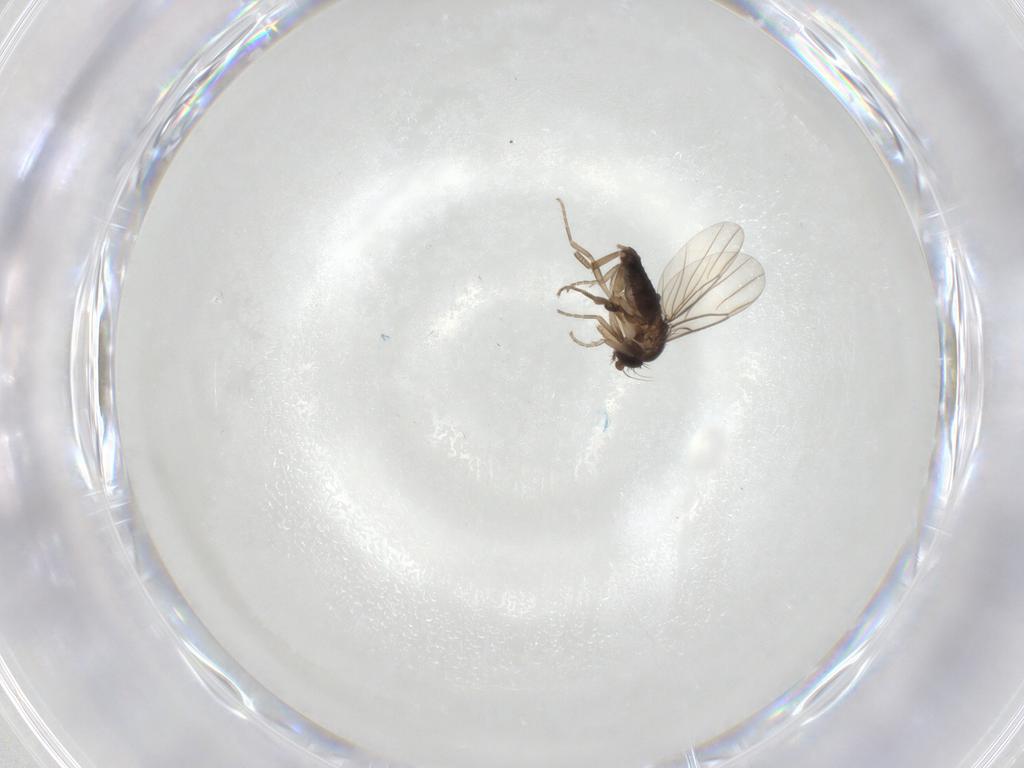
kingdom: Animalia
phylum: Arthropoda
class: Insecta
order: Diptera
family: Phoridae
